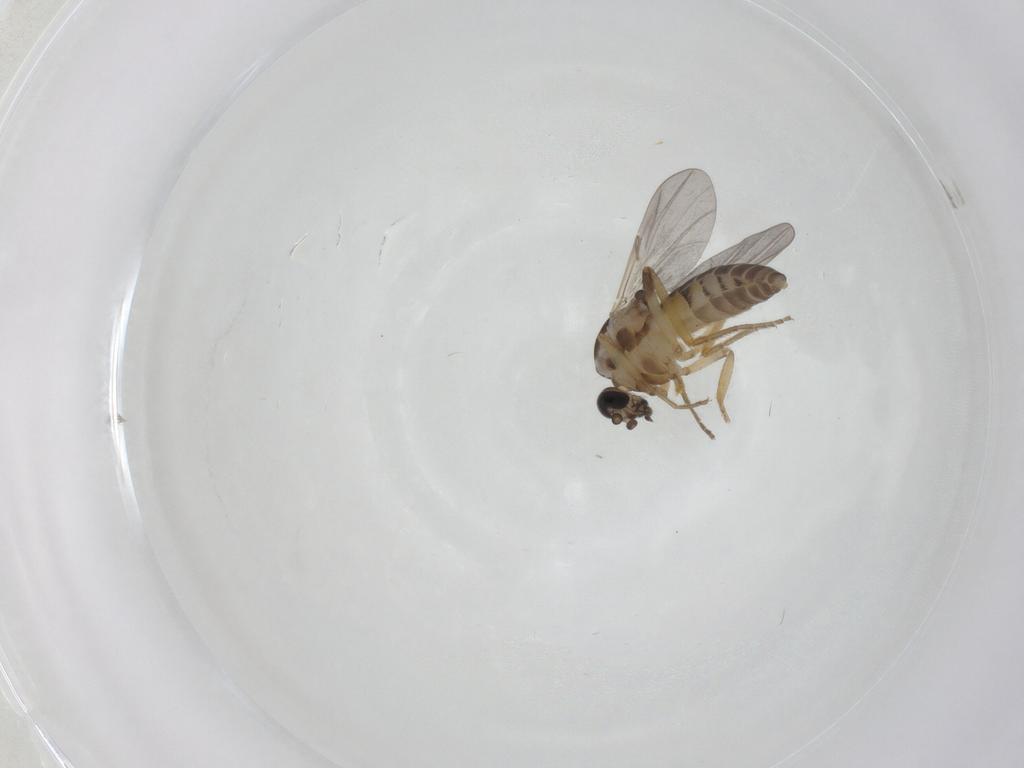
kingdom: Animalia
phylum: Arthropoda
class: Insecta
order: Diptera
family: Ceratopogonidae
